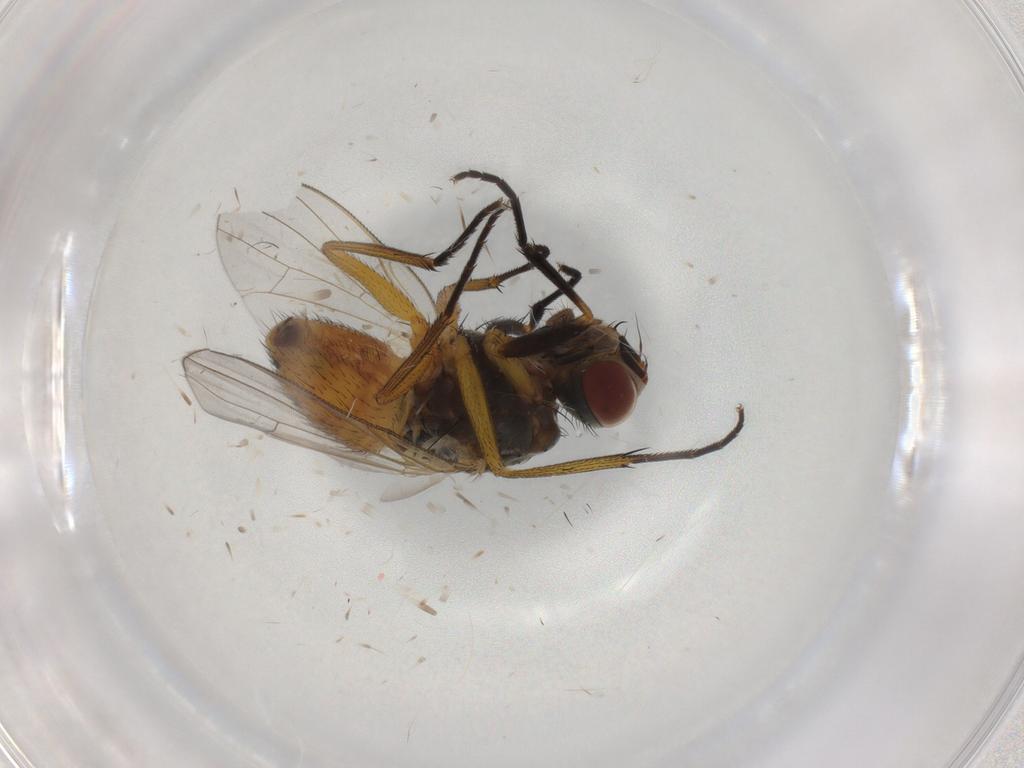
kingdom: Animalia
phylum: Arthropoda
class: Insecta
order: Diptera
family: Muscidae
